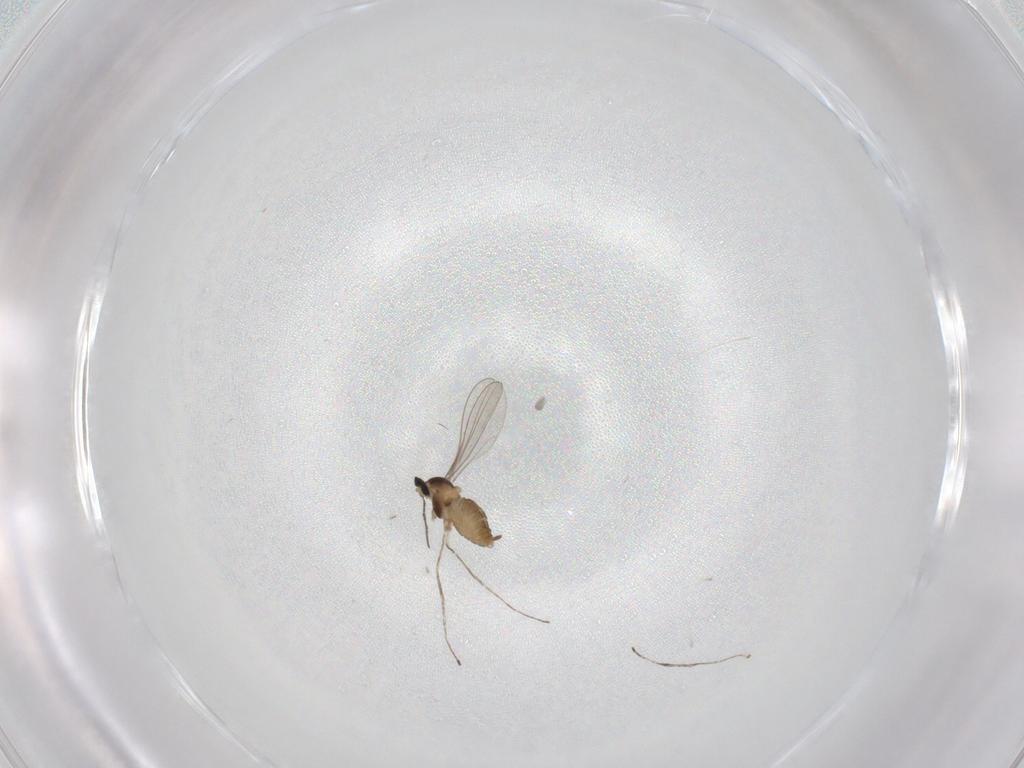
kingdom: Animalia
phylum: Arthropoda
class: Insecta
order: Diptera
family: Cecidomyiidae
